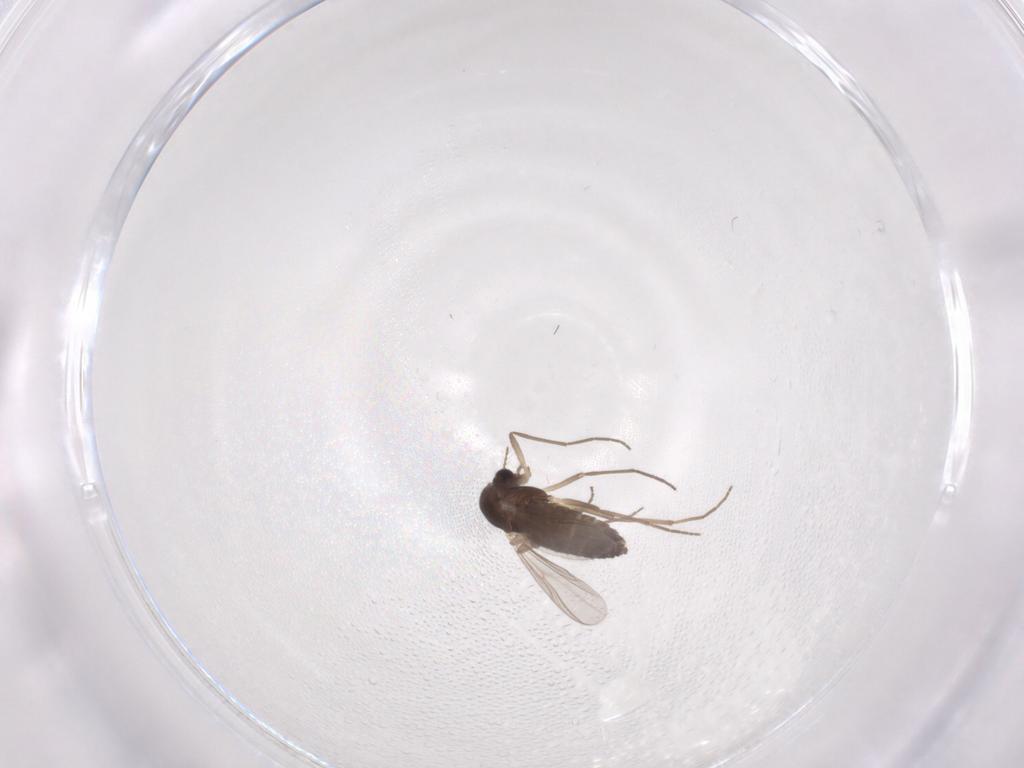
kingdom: Animalia
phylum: Arthropoda
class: Insecta
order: Diptera
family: Chironomidae
